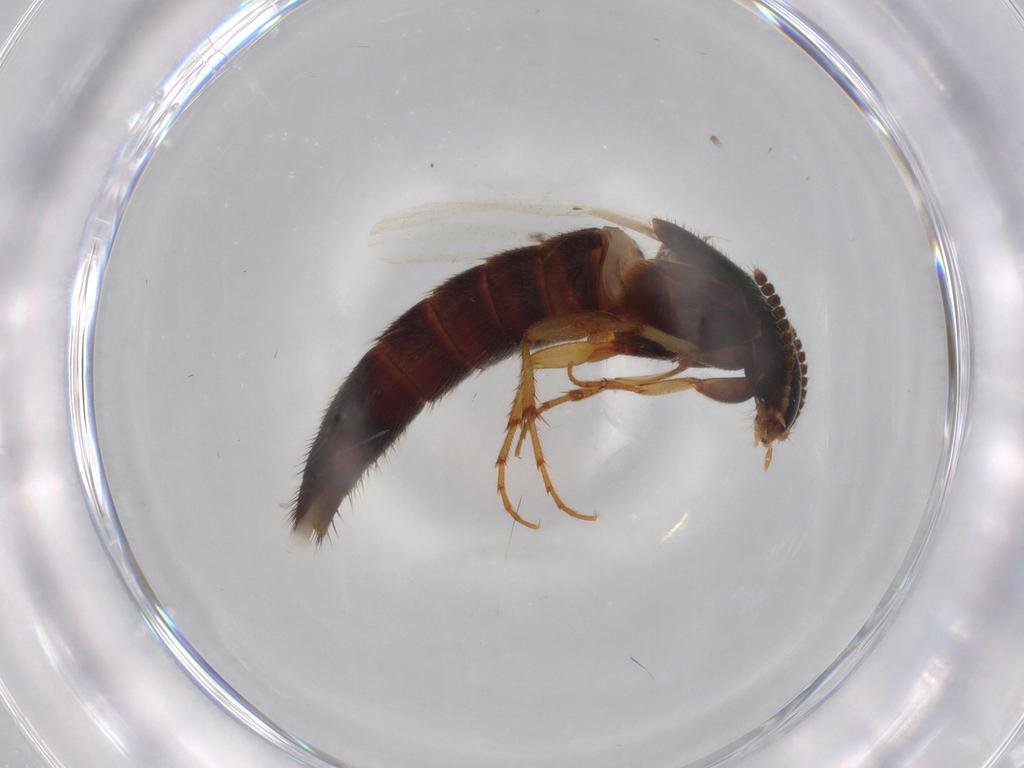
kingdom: Animalia
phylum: Arthropoda
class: Insecta
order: Coleoptera
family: Staphylinidae
